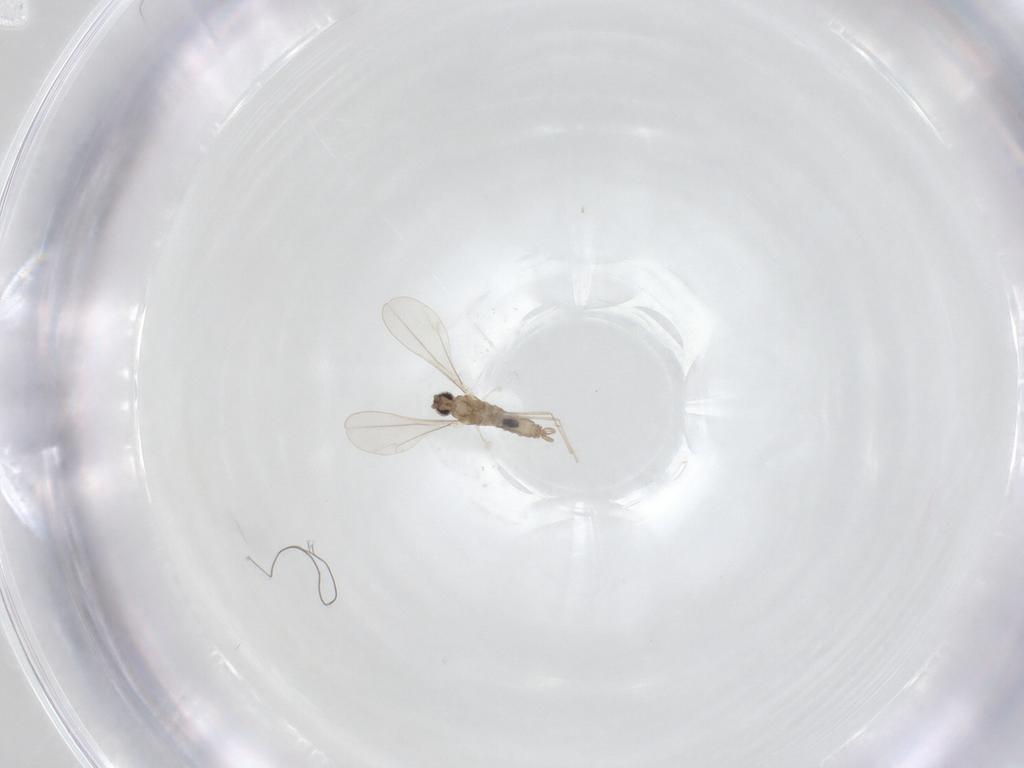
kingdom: Animalia
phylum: Arthropoda
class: Insecta
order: Diptera
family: Cecidomyiidae
